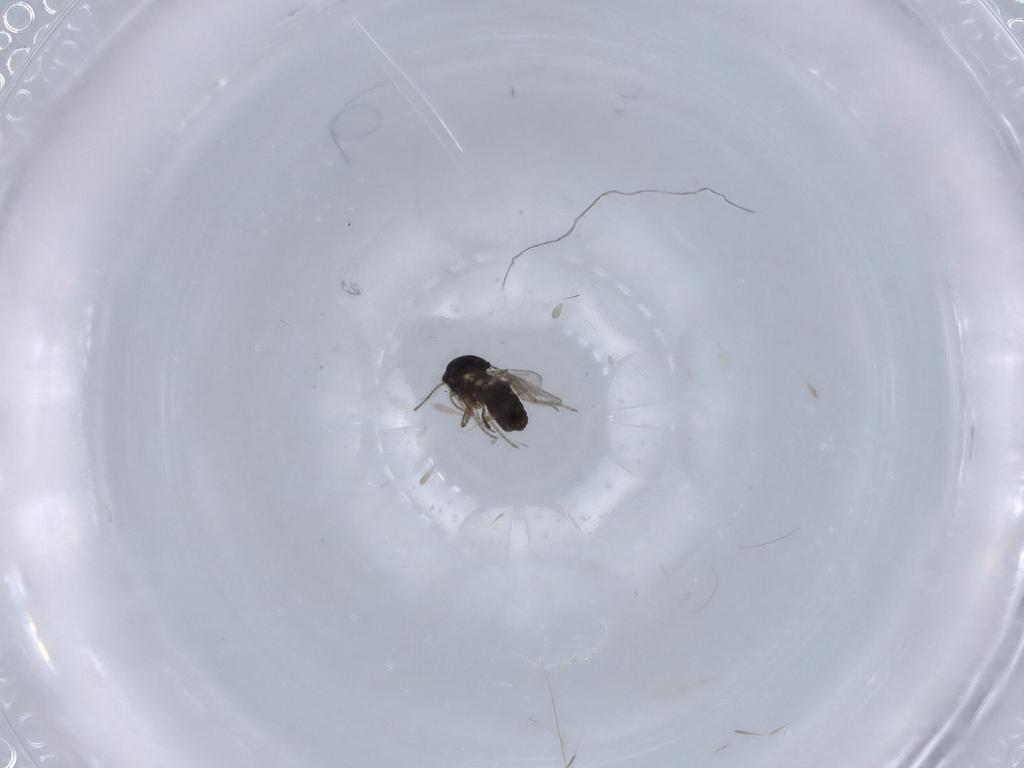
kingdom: Animalia
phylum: Arthropoda
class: Insecta
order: Diptera
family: Ceratopogonidae
